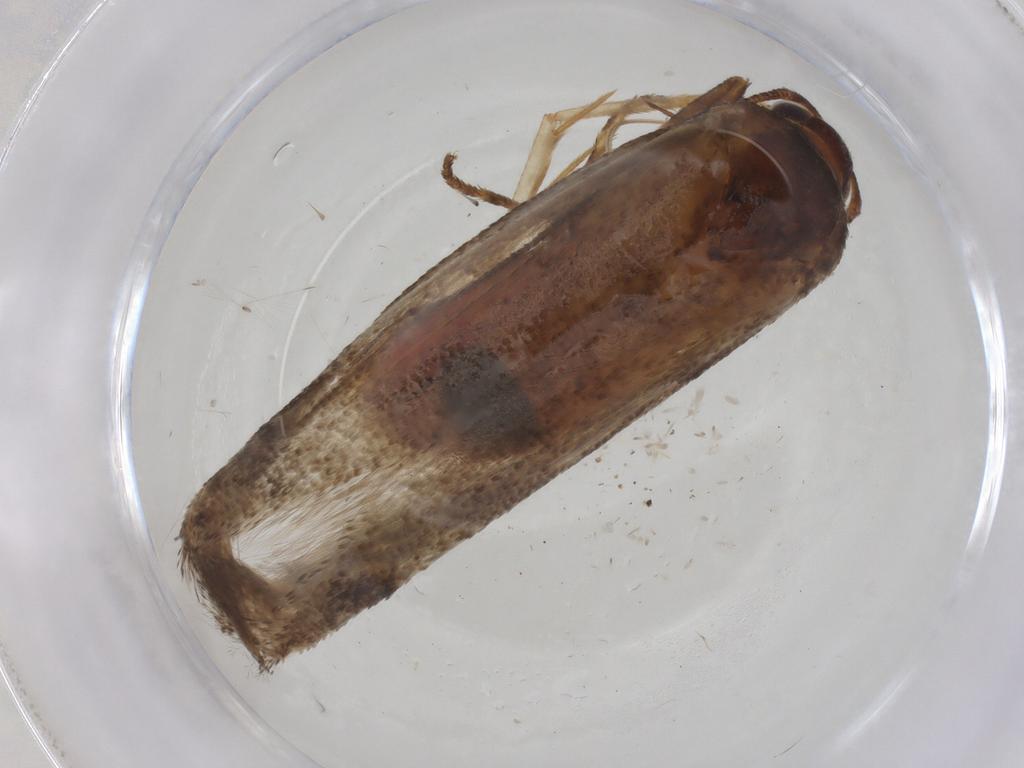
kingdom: Animalia
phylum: Arthropoda
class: Insecta
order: Lepidoptera
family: Cosmopterigidae
